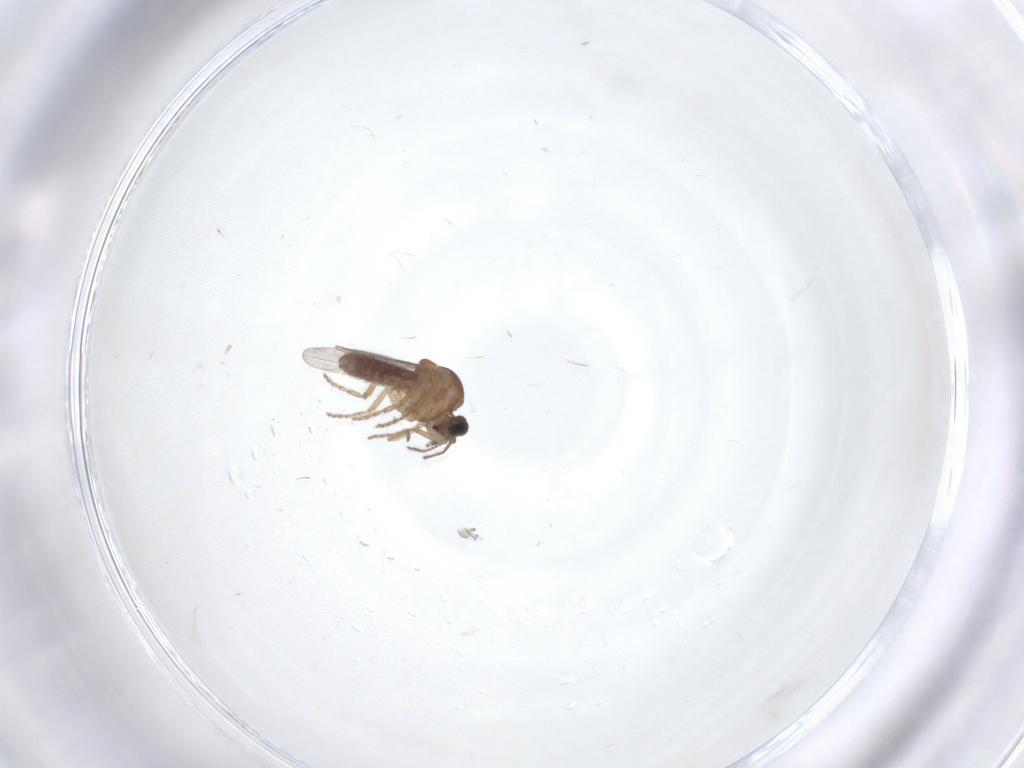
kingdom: Animalia
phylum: Arthropoda
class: Insecta
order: Diptera
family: Ceratopogonidae
